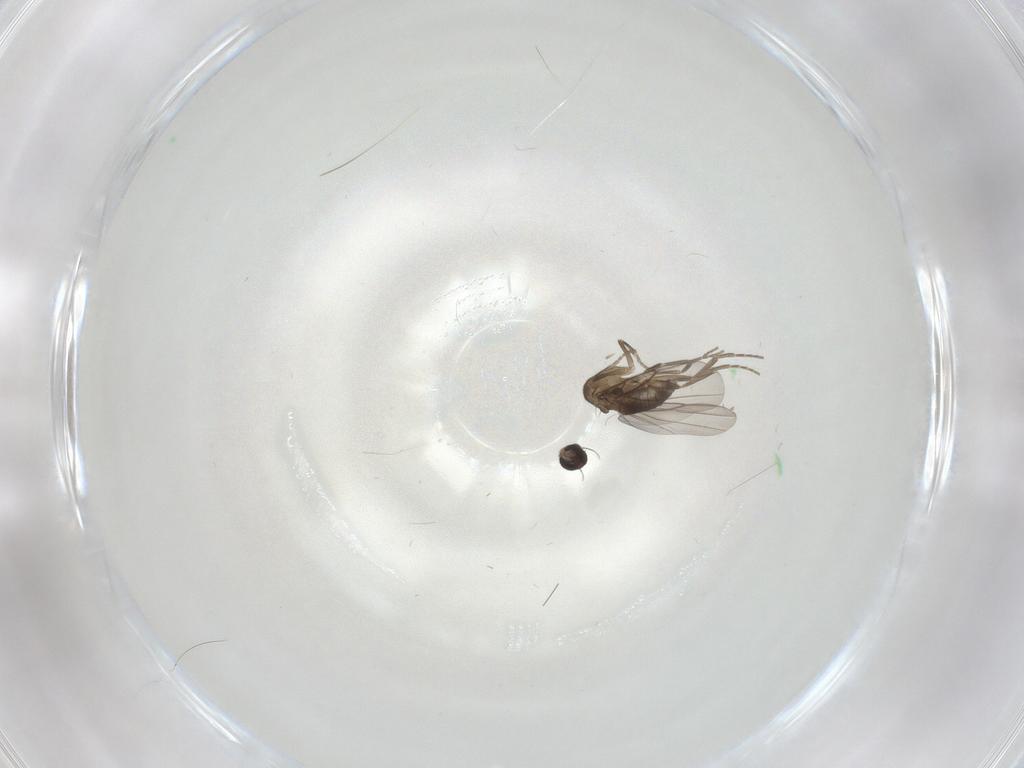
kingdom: Animalia
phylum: Arthropoda
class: Insecta
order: Diptera
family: Phoridae
